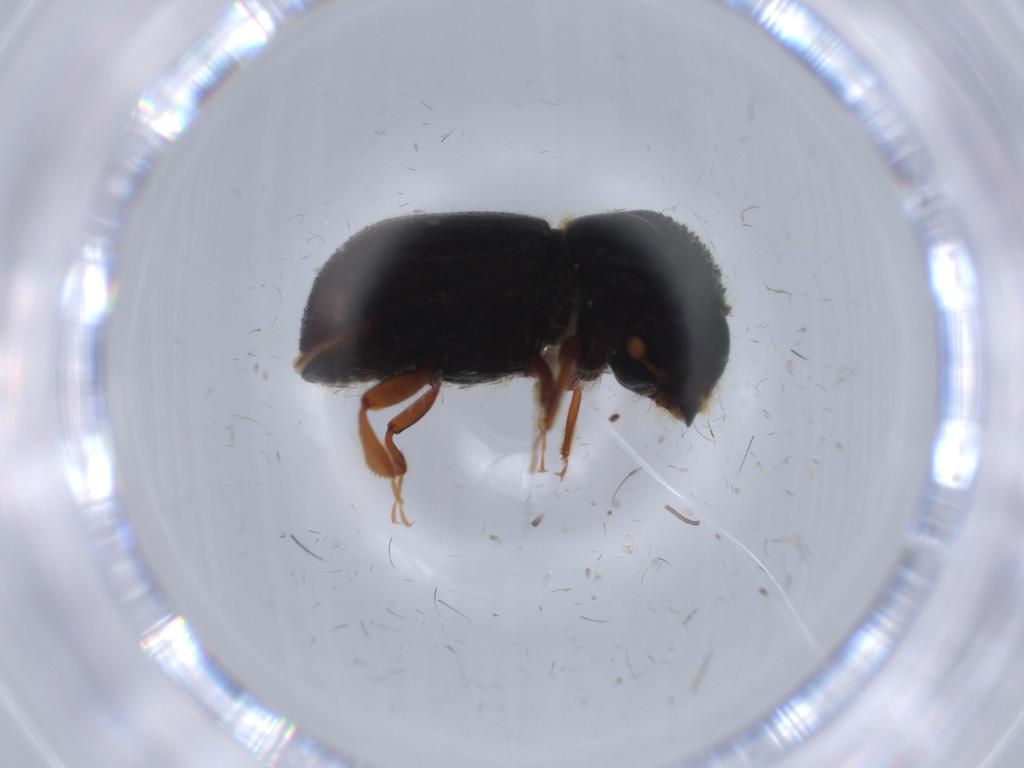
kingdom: Animalia
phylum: Arthropoda
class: Insecta
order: Coleoptera
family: Curculionidae
